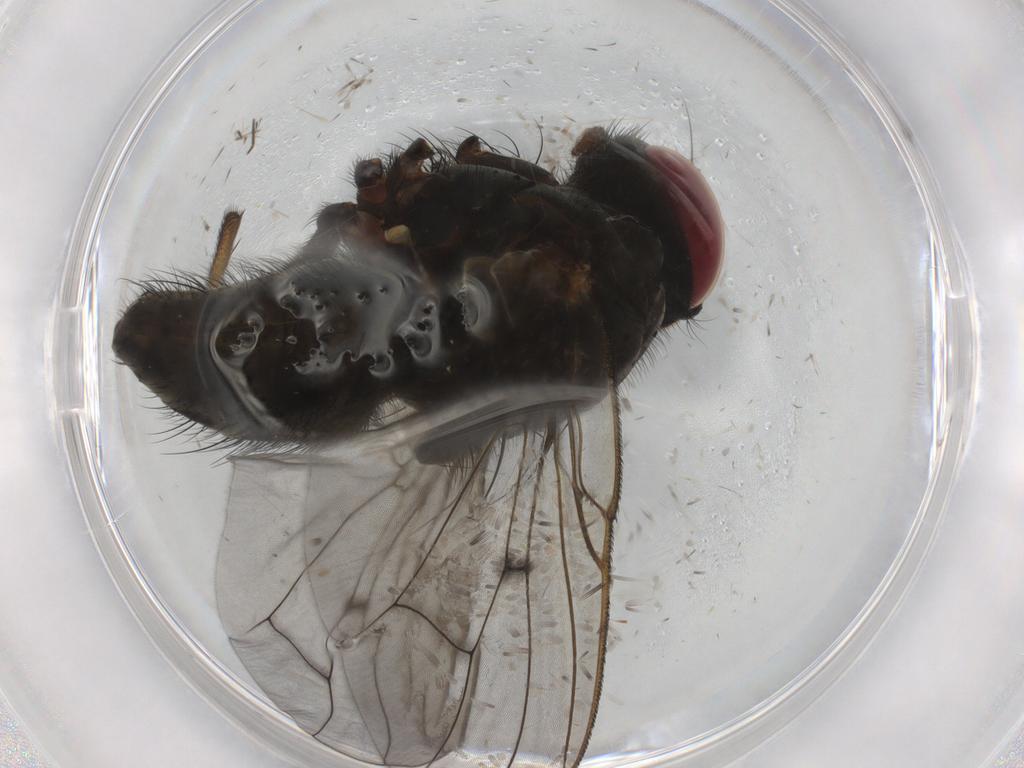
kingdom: Animalia
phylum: Arthropoda
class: Insecta
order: Diptera
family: Muscidae
